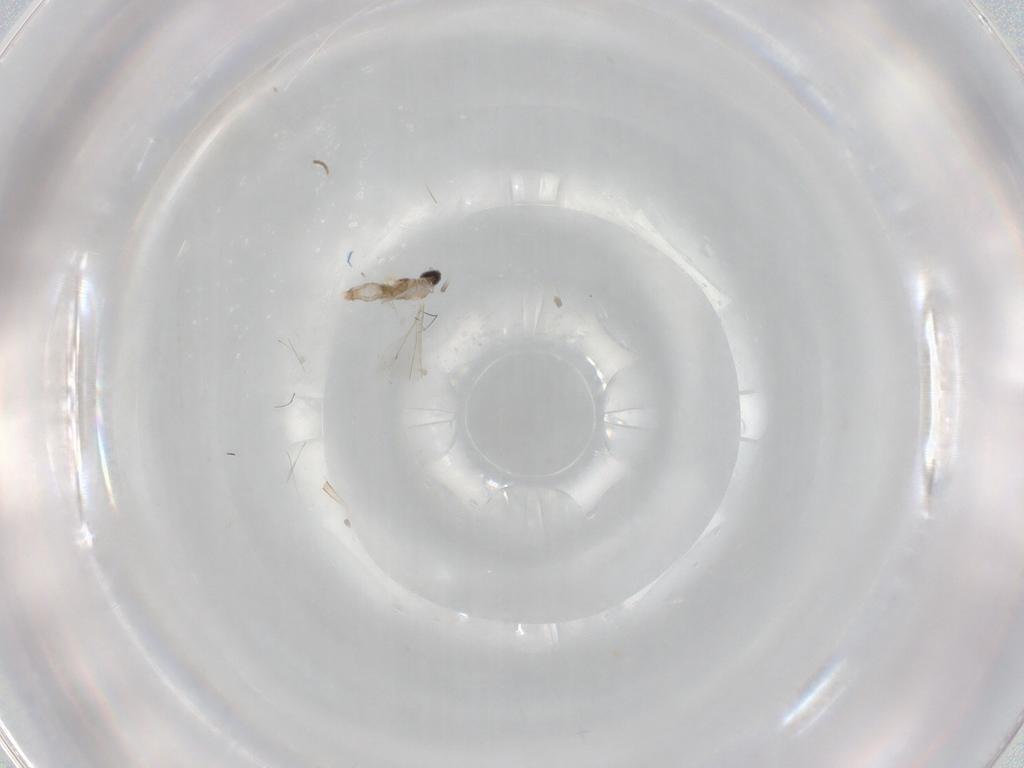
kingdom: Animalia
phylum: Arthropoda
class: Insecta
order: Diptera
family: Cecidomyiidae
